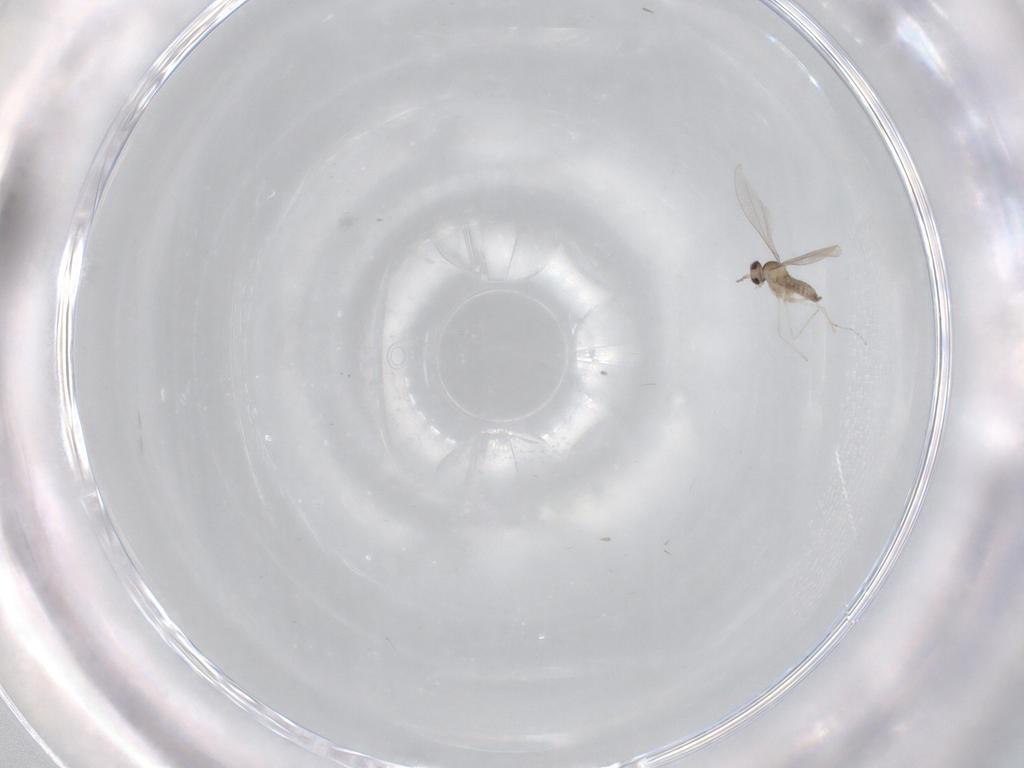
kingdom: Animalia
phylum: Arthropoda
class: Insecta
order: Diptera
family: Cecidomyiidae
